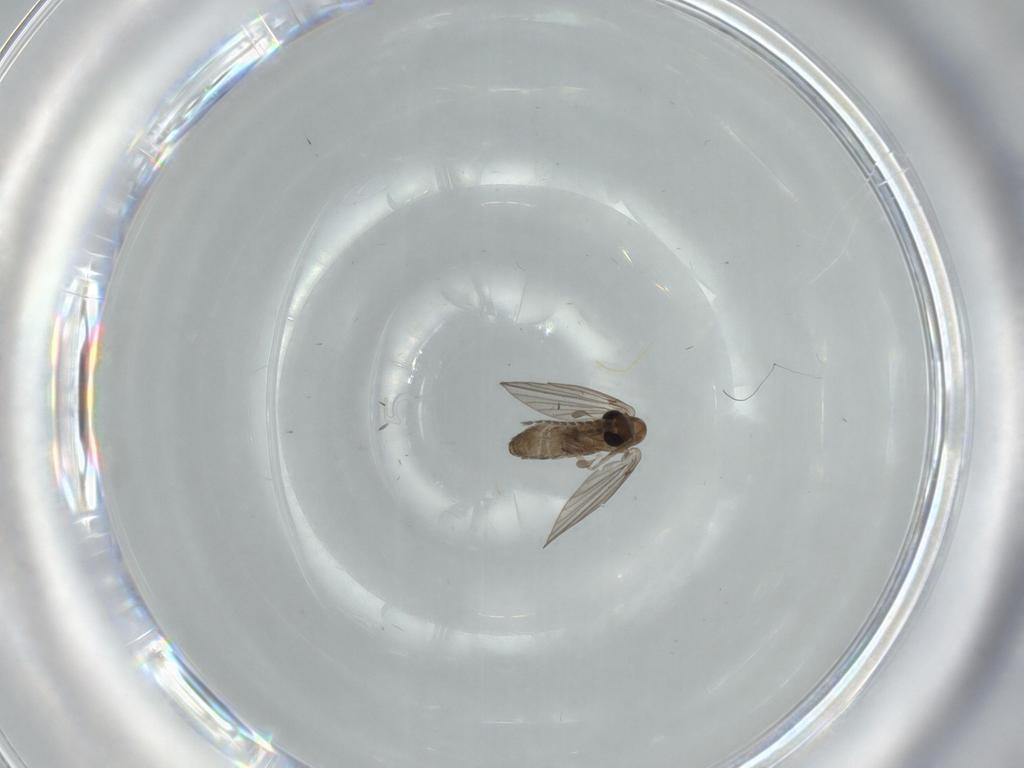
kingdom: Animalia
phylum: Arthropoda
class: Insecta
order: Diptera
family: Psychodidae
